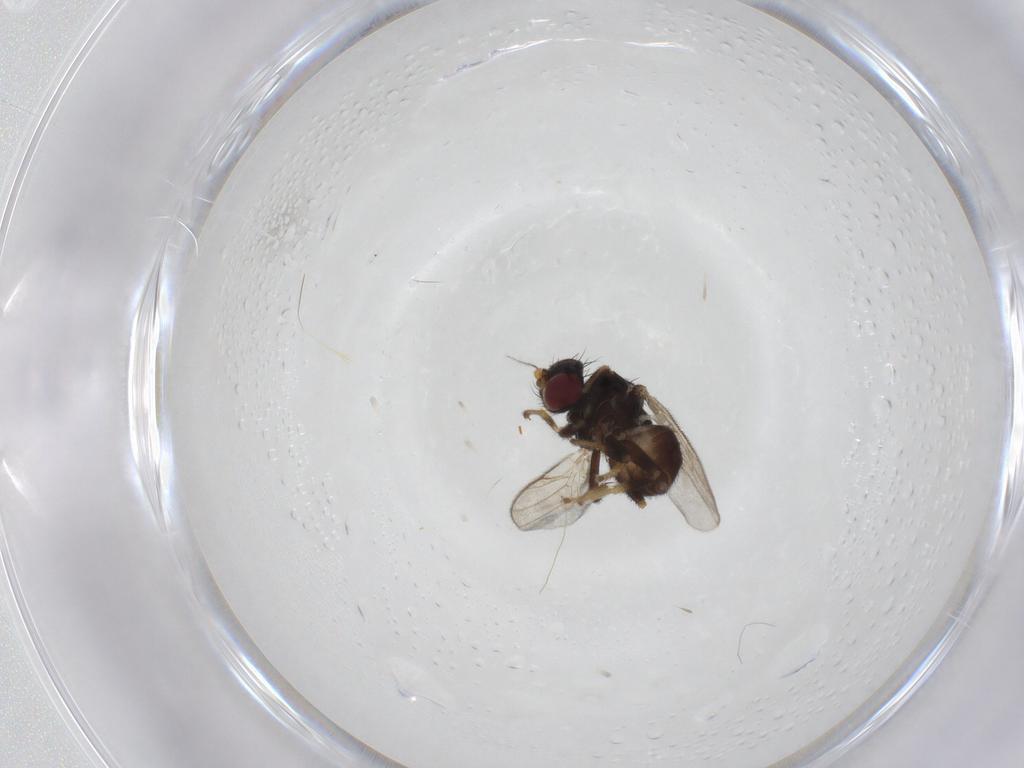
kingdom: Animalia
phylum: Arthropoda
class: Insecta
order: Diptera
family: Chloropidae
